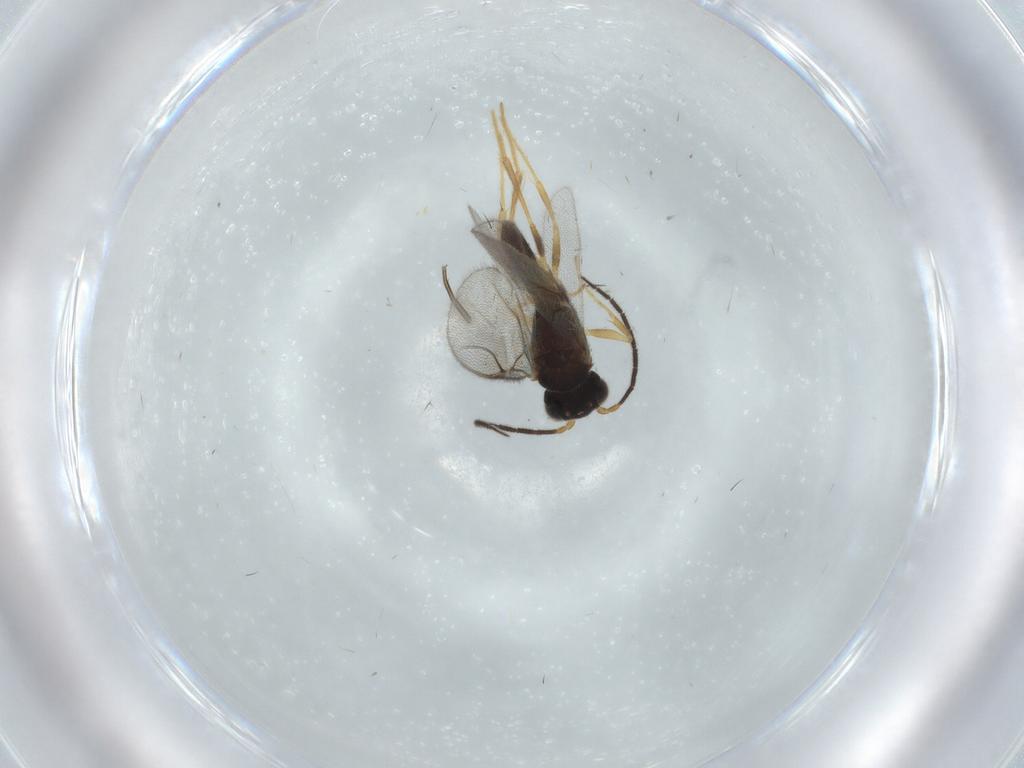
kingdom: Animalia
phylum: Arthropoda
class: Insecta
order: Hymenoptera
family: Dryinidae
